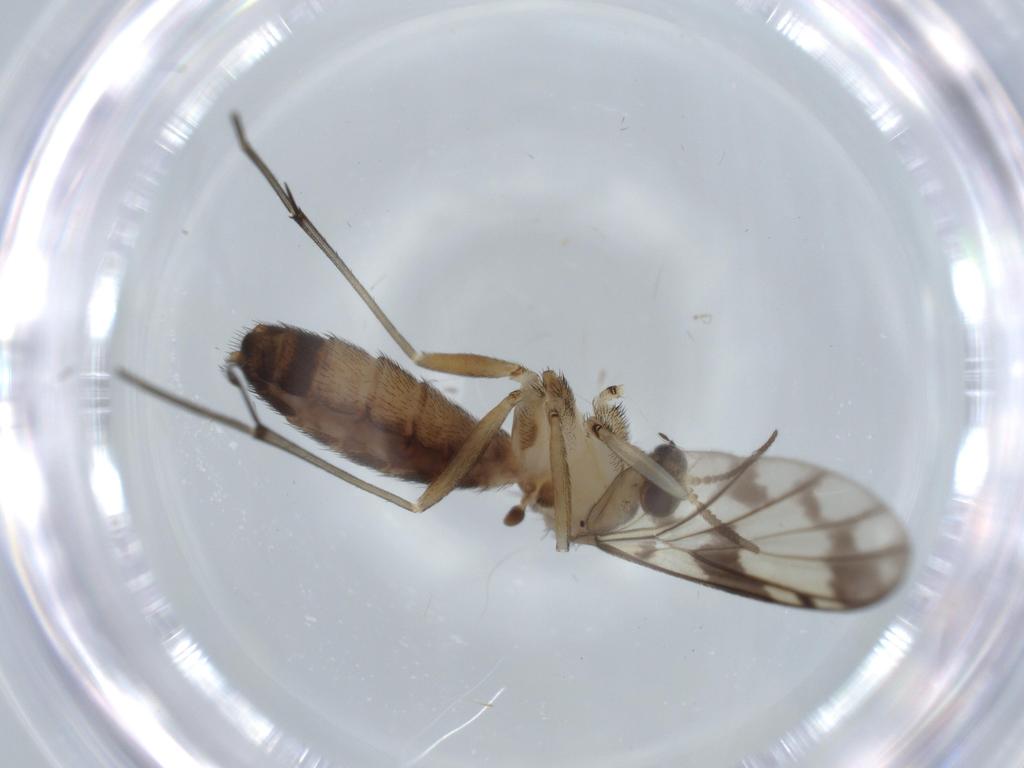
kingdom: Animalia
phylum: Arthropoda
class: Insecta
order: Diptera
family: Keroplatidae
